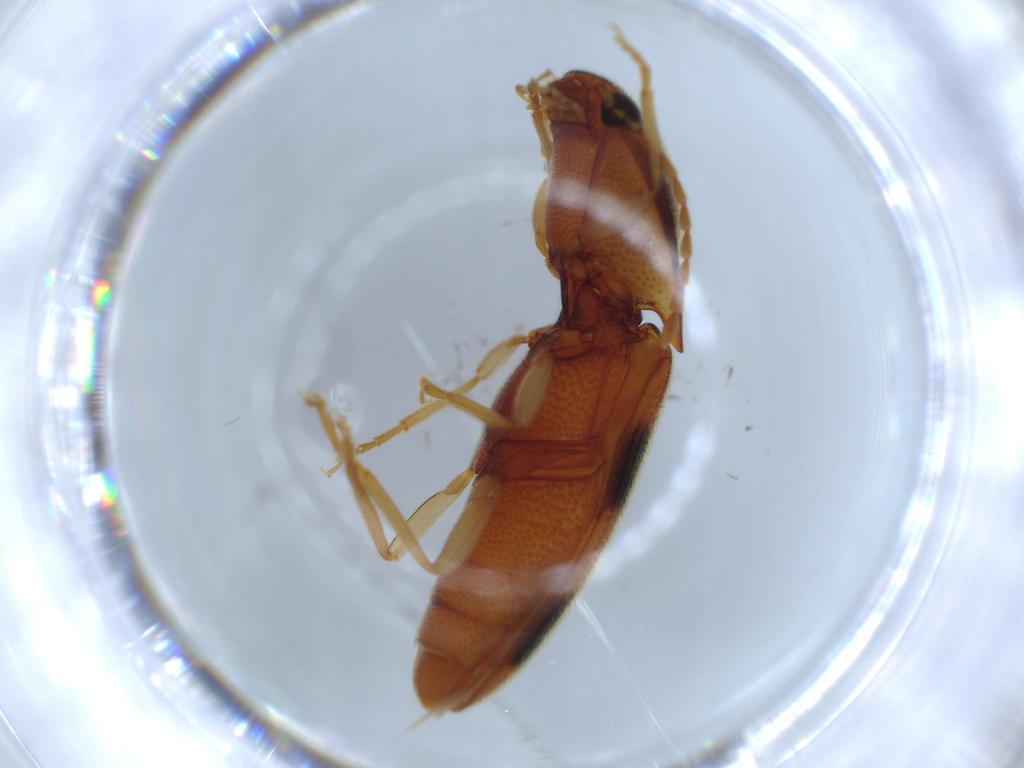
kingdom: Animalia
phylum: Arthropoda
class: Insecta
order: Coleoptera
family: Elateridae
